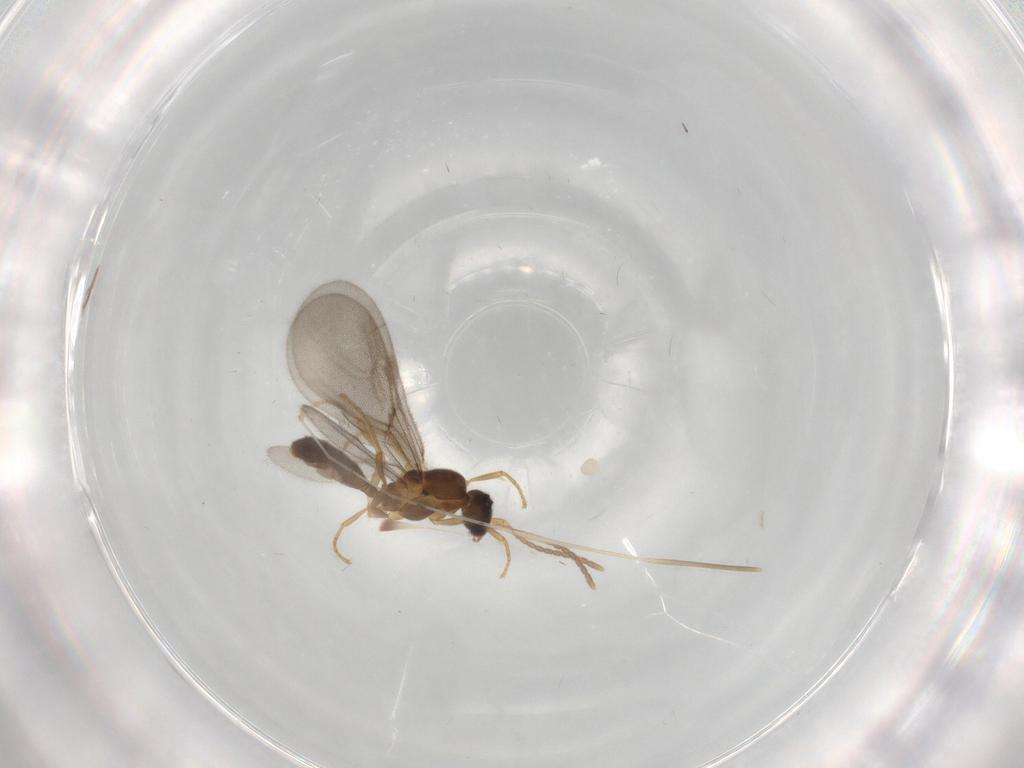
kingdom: Animalia
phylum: Arthropoda
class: Insecta
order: Hymenoptera
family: Formicidae
